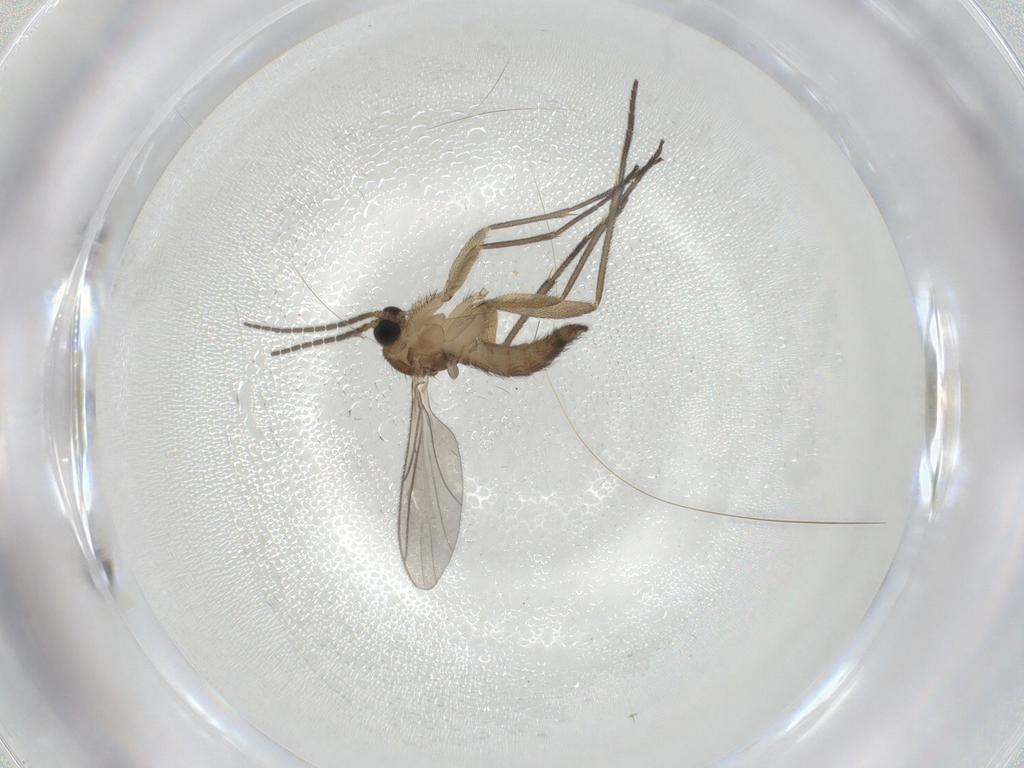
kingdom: Animalia
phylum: Arthropoda
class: Insecta
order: Diptera
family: Sciaridae
